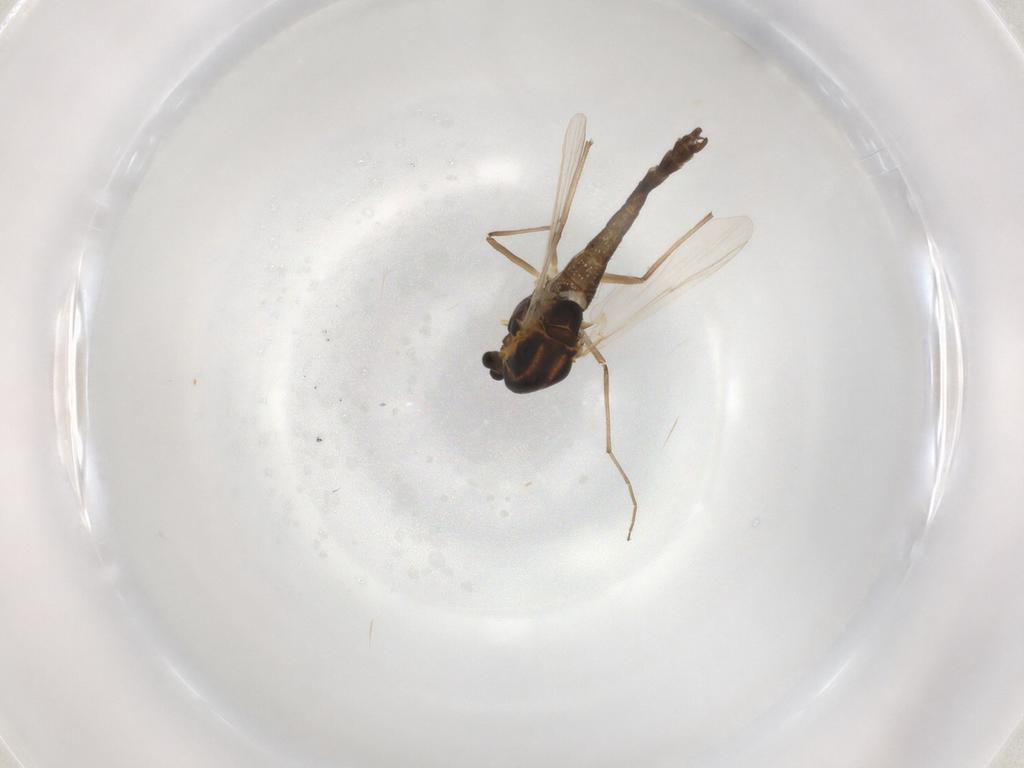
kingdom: Animalia
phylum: Arthropoda
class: Insecta
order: Diptera
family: Chironomidae
